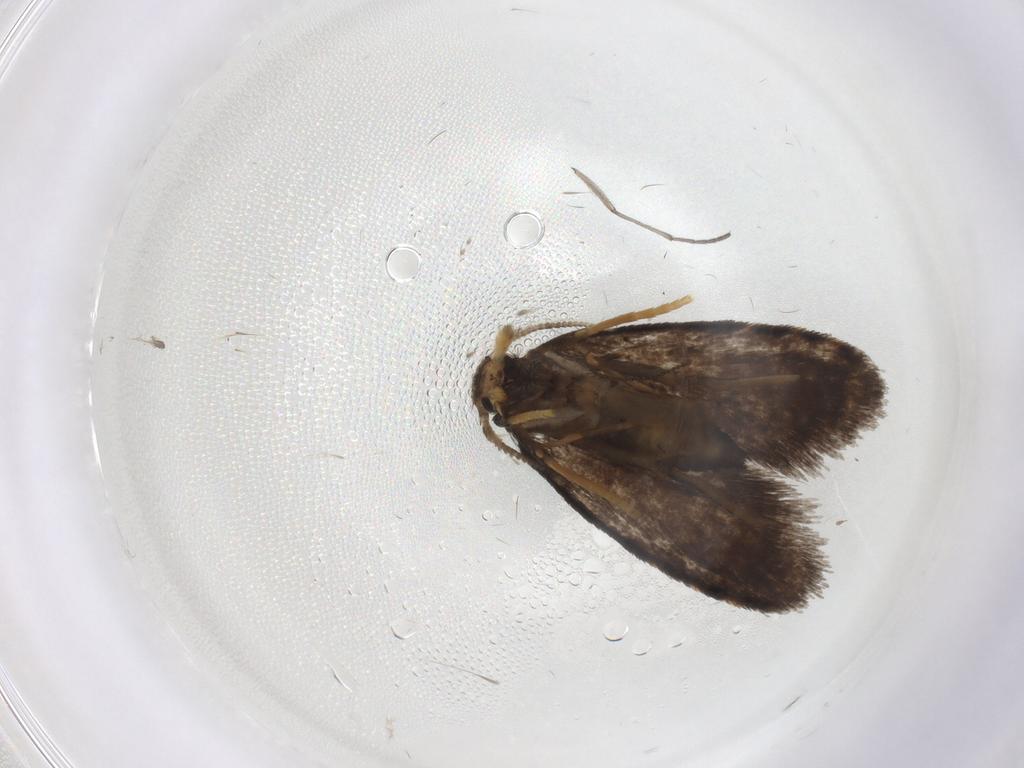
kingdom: Animalia
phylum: Arthropoda
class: Insecta
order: Lepidoptera
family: Psychidae
